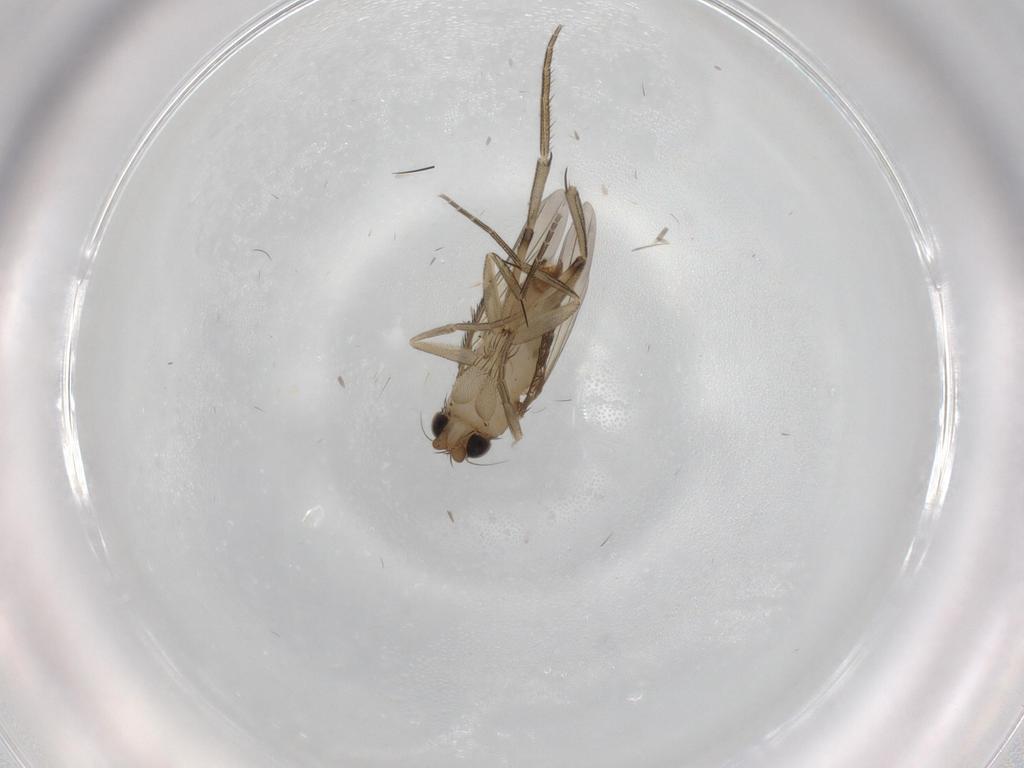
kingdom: Animalia
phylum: Arthropoda
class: Insecta
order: Diptera
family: Phoridae
